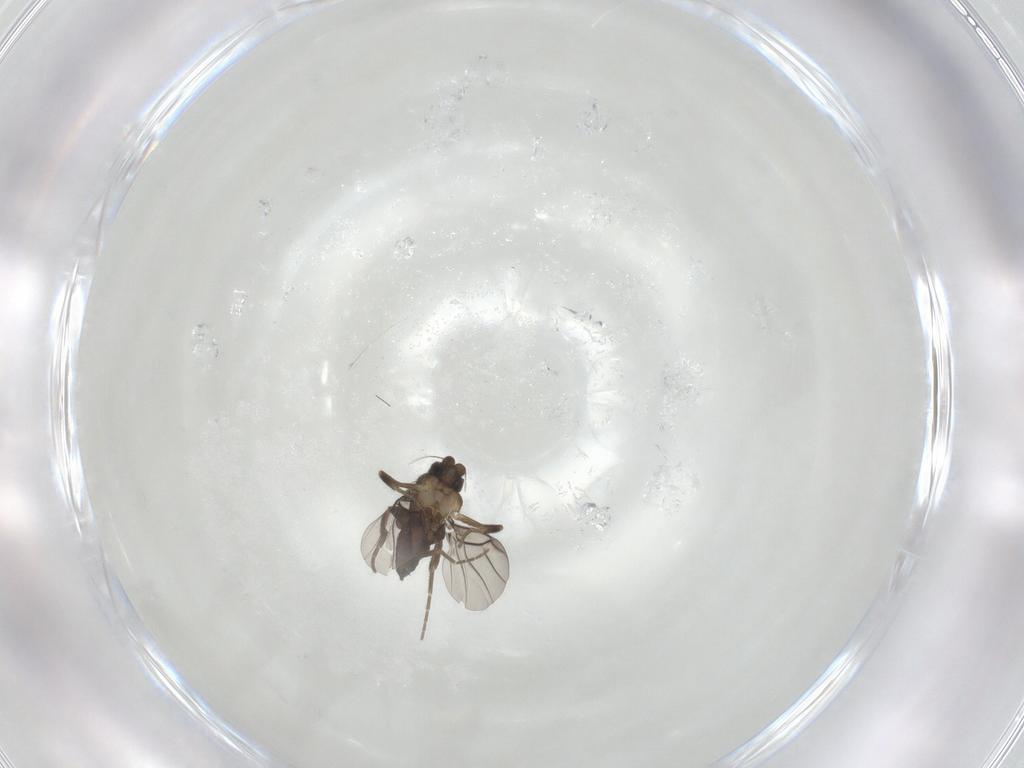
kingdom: Animalia
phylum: Arthropoda
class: Insecta
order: Diptera
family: Phoridae
